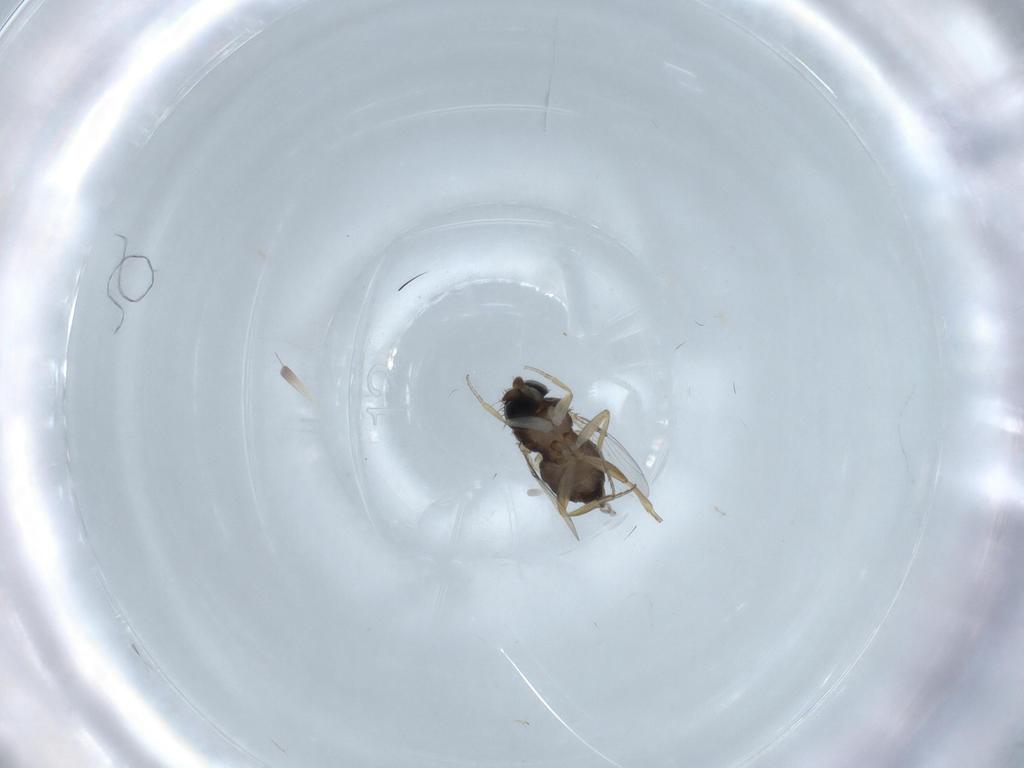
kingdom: Animalia
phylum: Arthropoda
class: Insecta
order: Diptera
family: Phoridae
